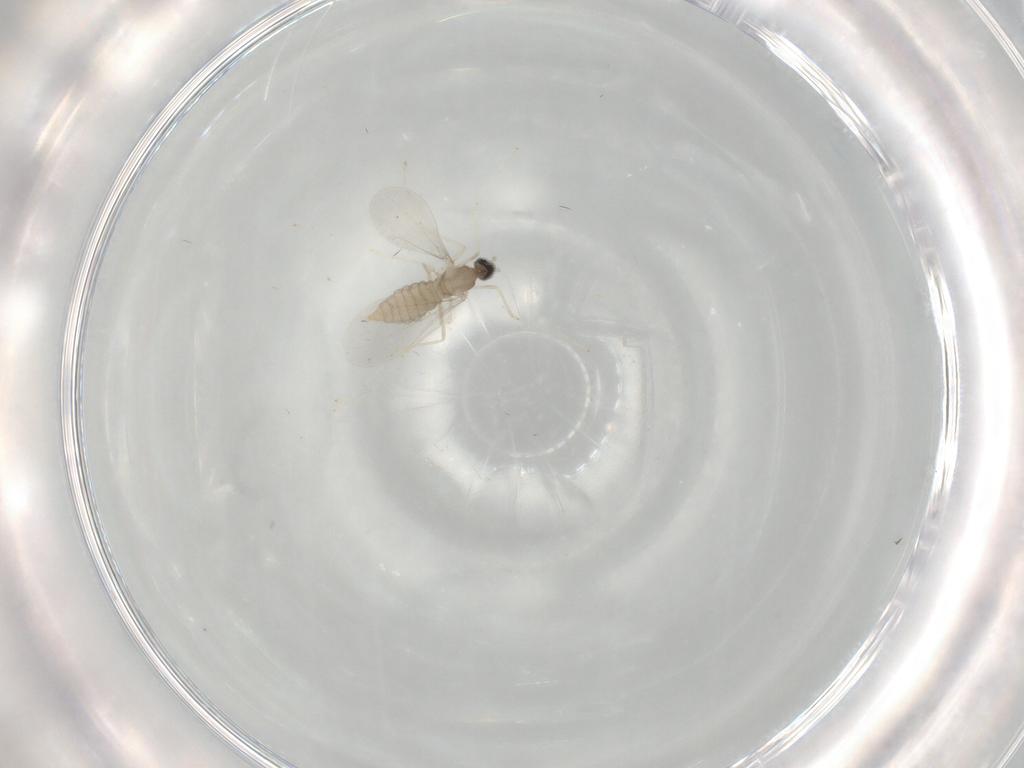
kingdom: Animalia
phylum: Arthropoda
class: Insecta
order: Diptera
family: Cecidomyiidae
